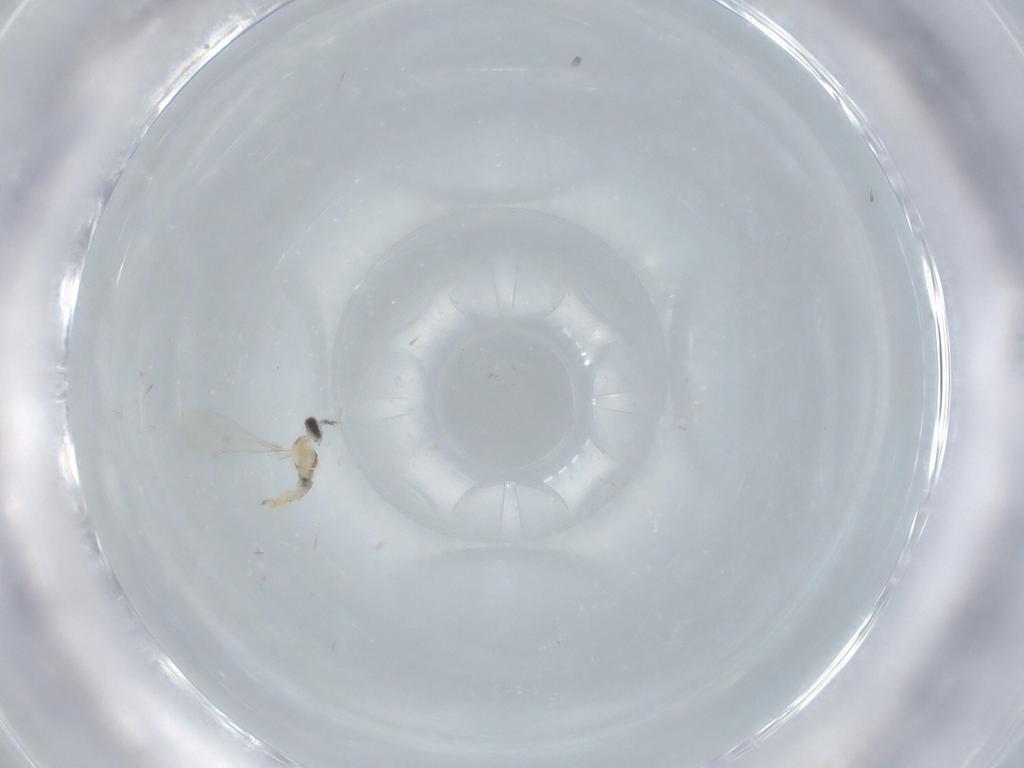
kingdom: Animalia
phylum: Arthropoda
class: Insecta
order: Diptera
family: Cecidomyiidae
